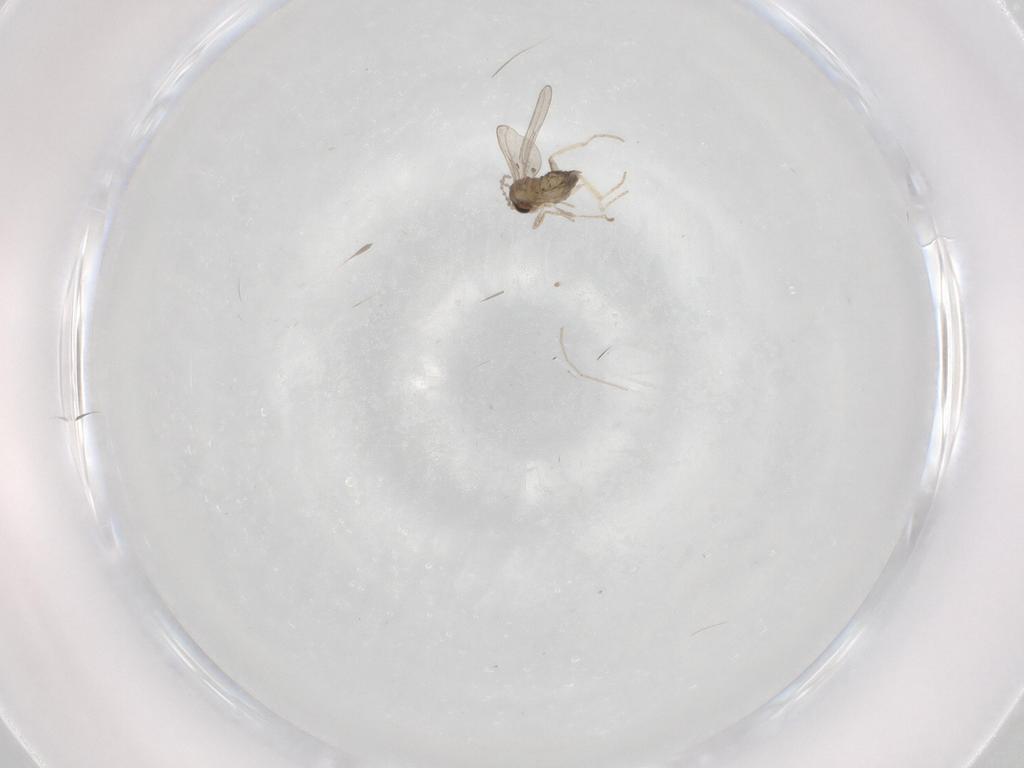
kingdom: Animalia
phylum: Arthropoda
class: Insecta
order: Diptera
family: Cecidomyiidae
